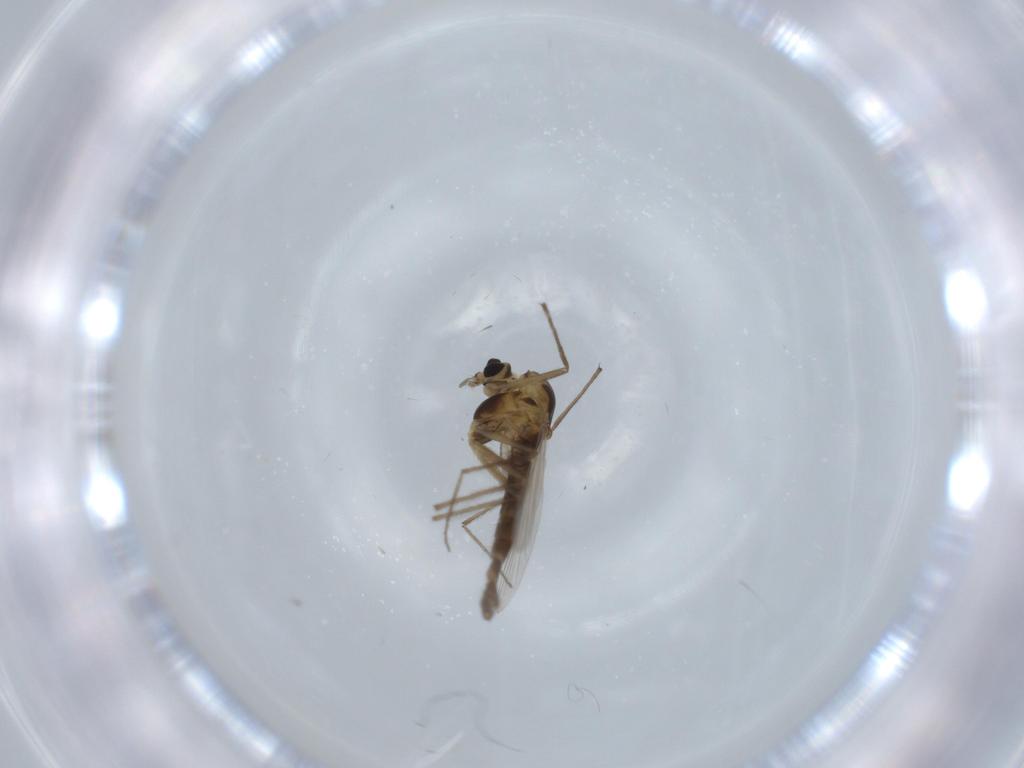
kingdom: Animalia
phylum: Arthropoda
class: Insecta
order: Diptera
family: Chironomidae
